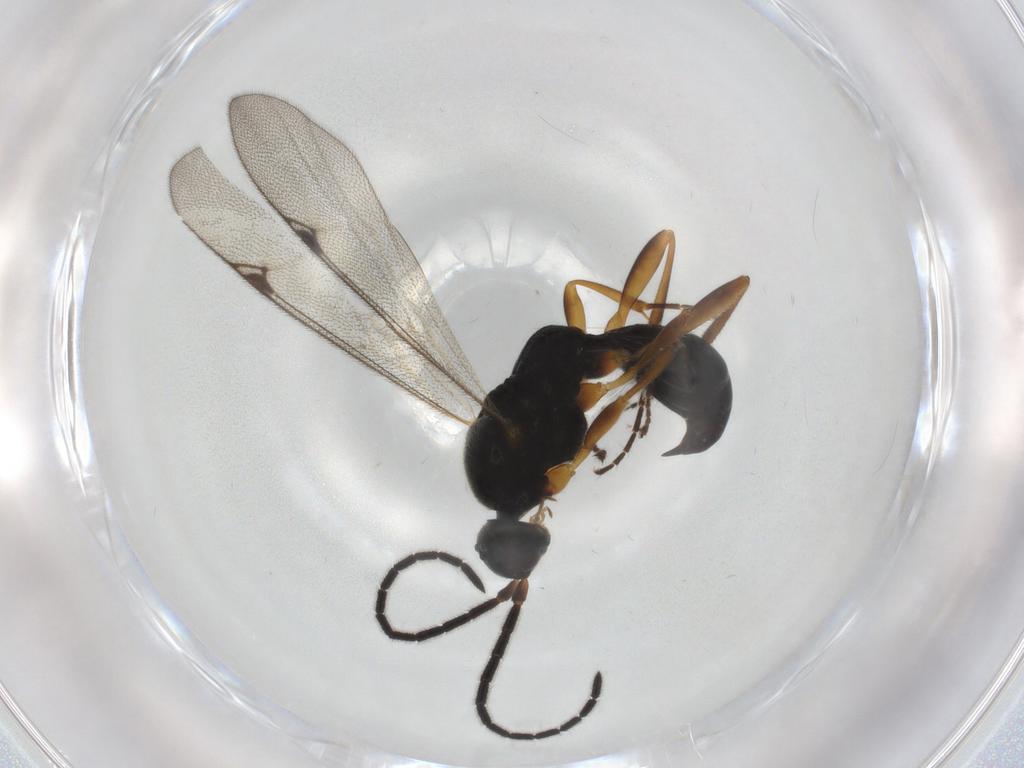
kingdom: Animalia
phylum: Arthropoda
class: Insecta
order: Hymenoptera
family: Proctotrupidae
